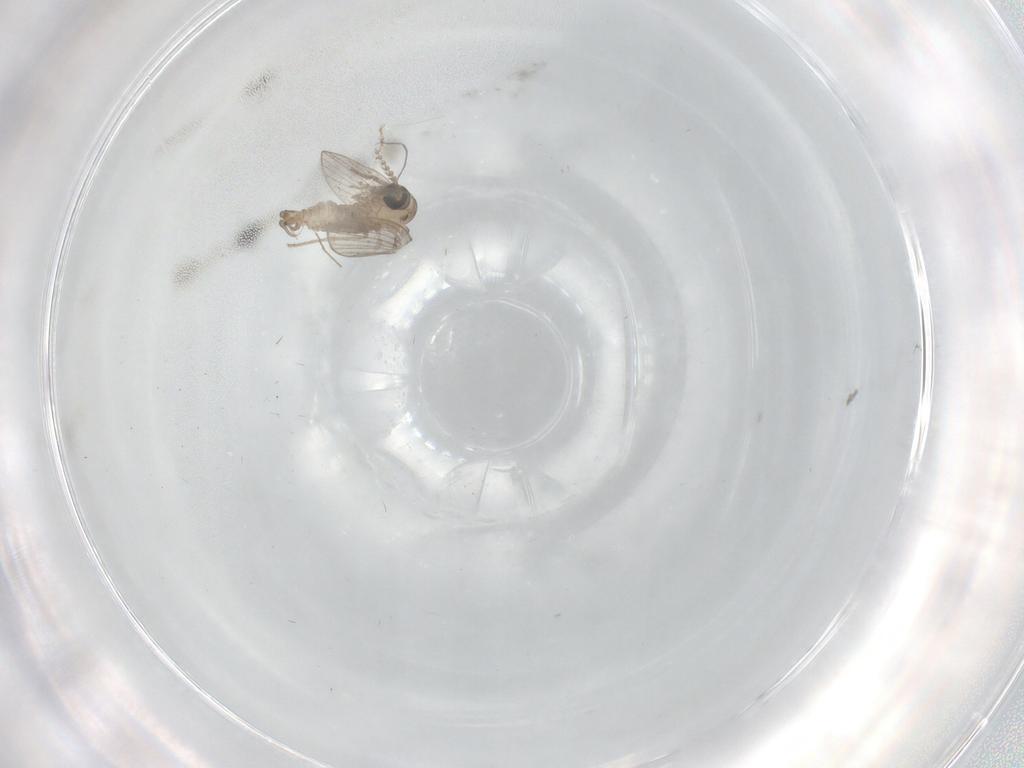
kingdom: Animalia
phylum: Arthropoda
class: Insecta
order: Diptera
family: Psychodidae
